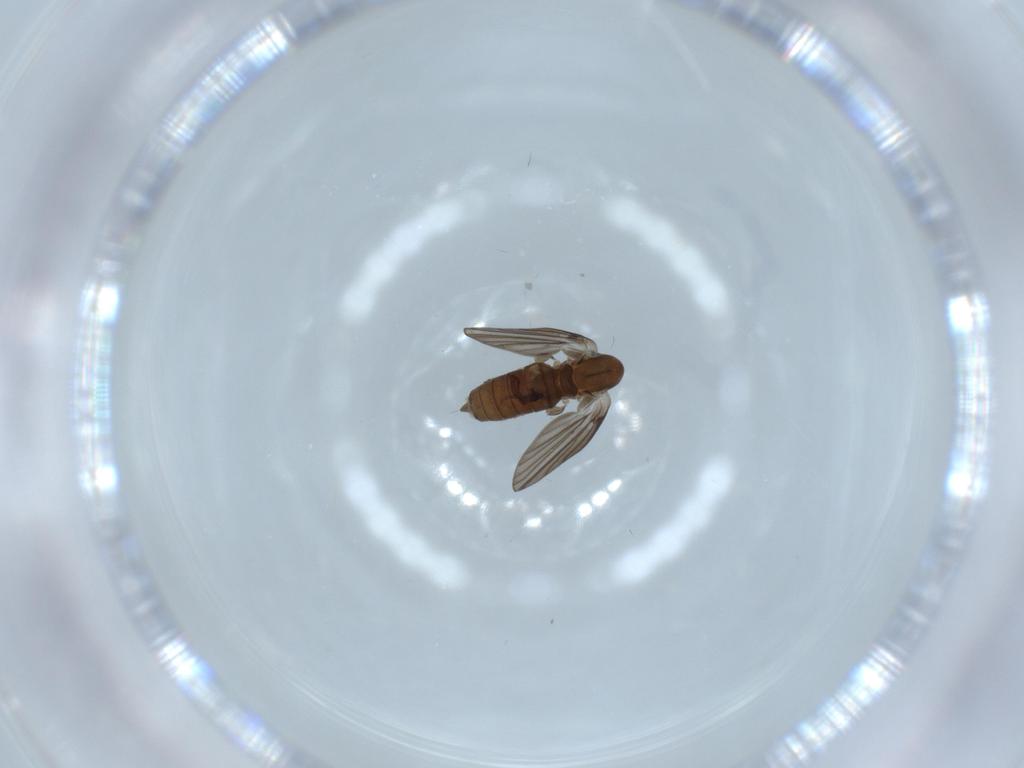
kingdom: Animalia
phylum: Arthropoda
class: Insecta
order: Diptera
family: Psychodidae
